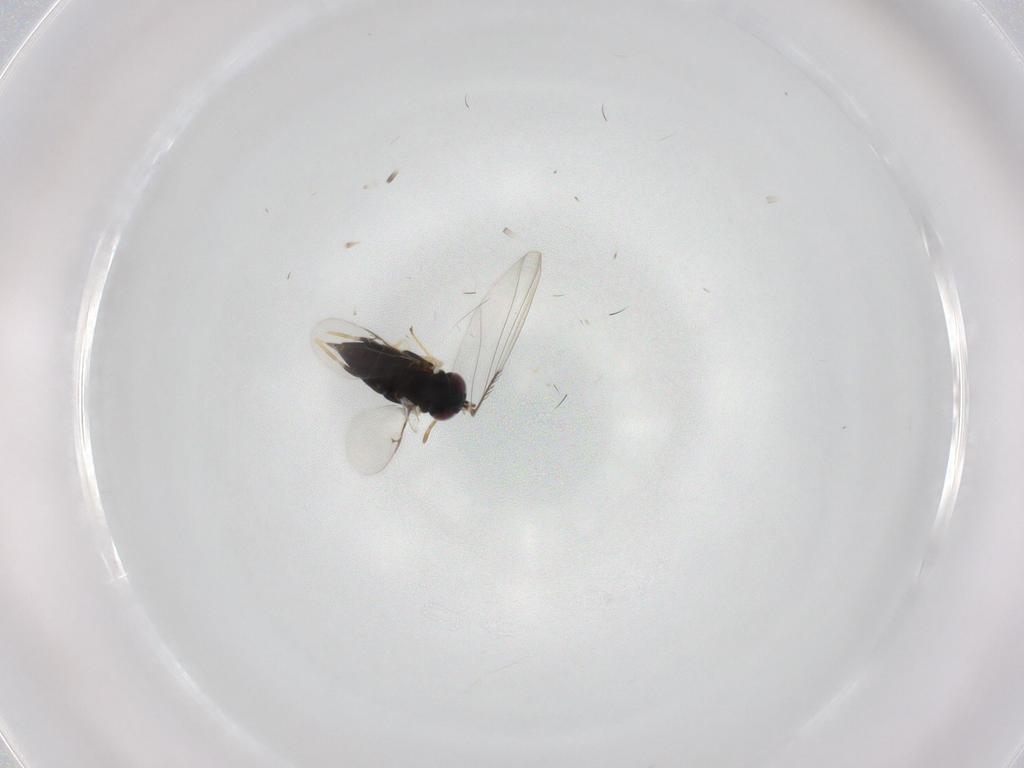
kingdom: Animalia
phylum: Arthropoda
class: Insecta
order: Hymenoptera
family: Encyrtidae
